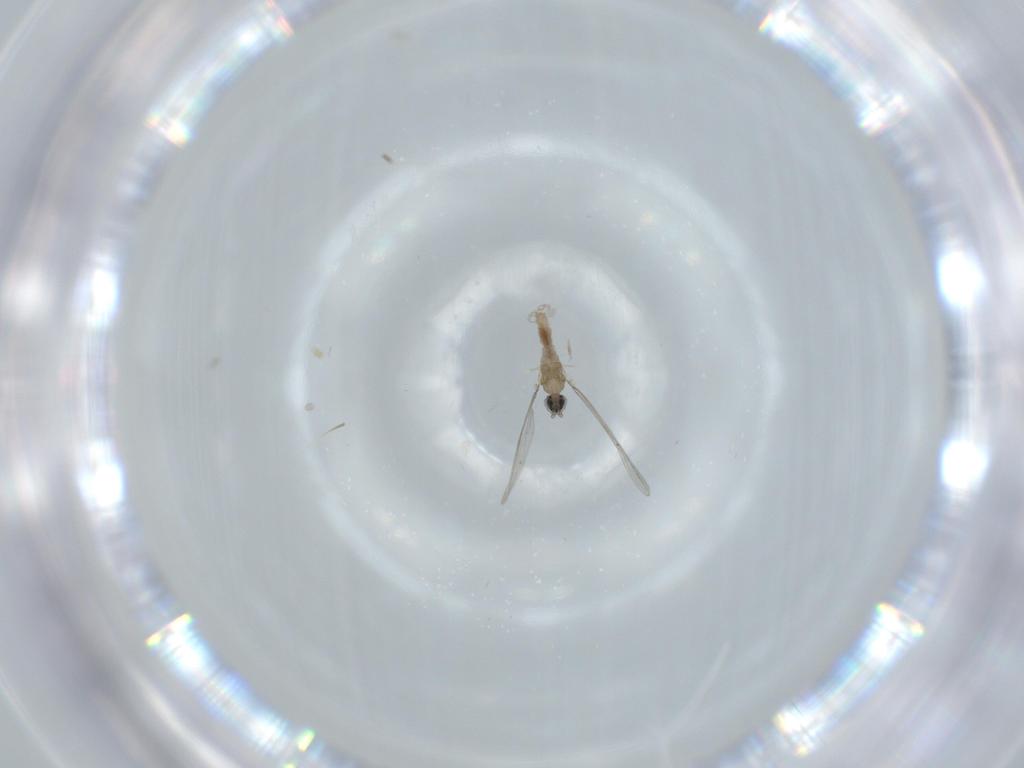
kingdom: Animalia
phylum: Arthropoda
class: Insecta
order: Diptera
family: Cecidomyiidae
